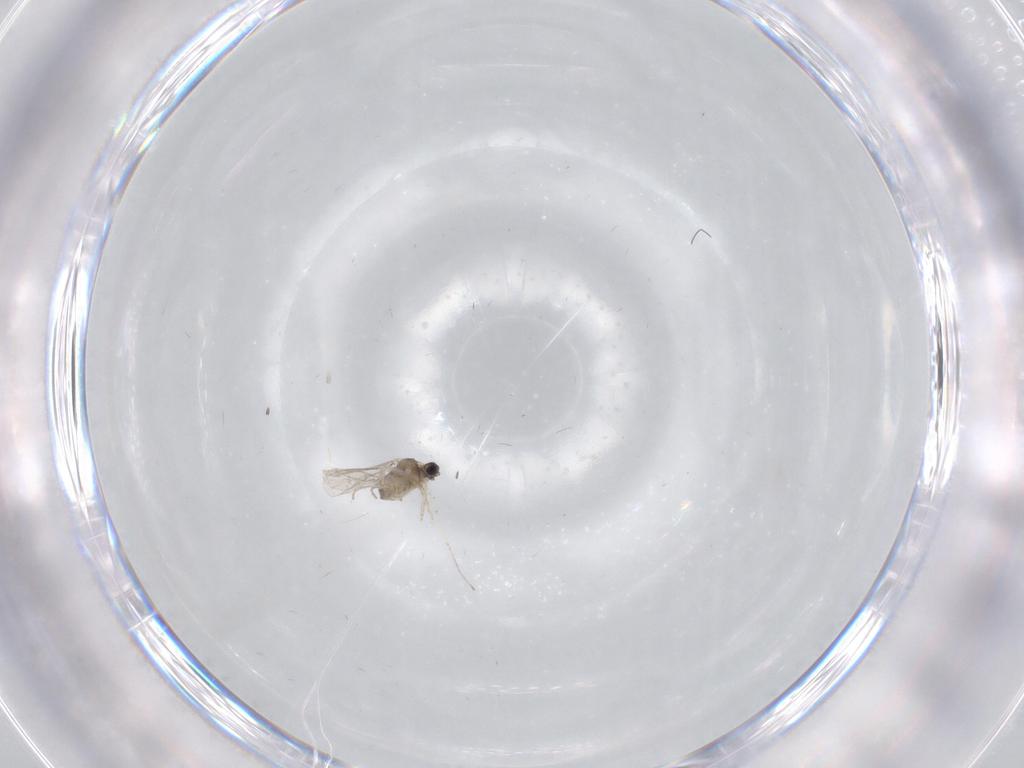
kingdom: Animalia
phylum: Arthropoda
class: Insecta
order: Diptera
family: Cecidomyiidae
